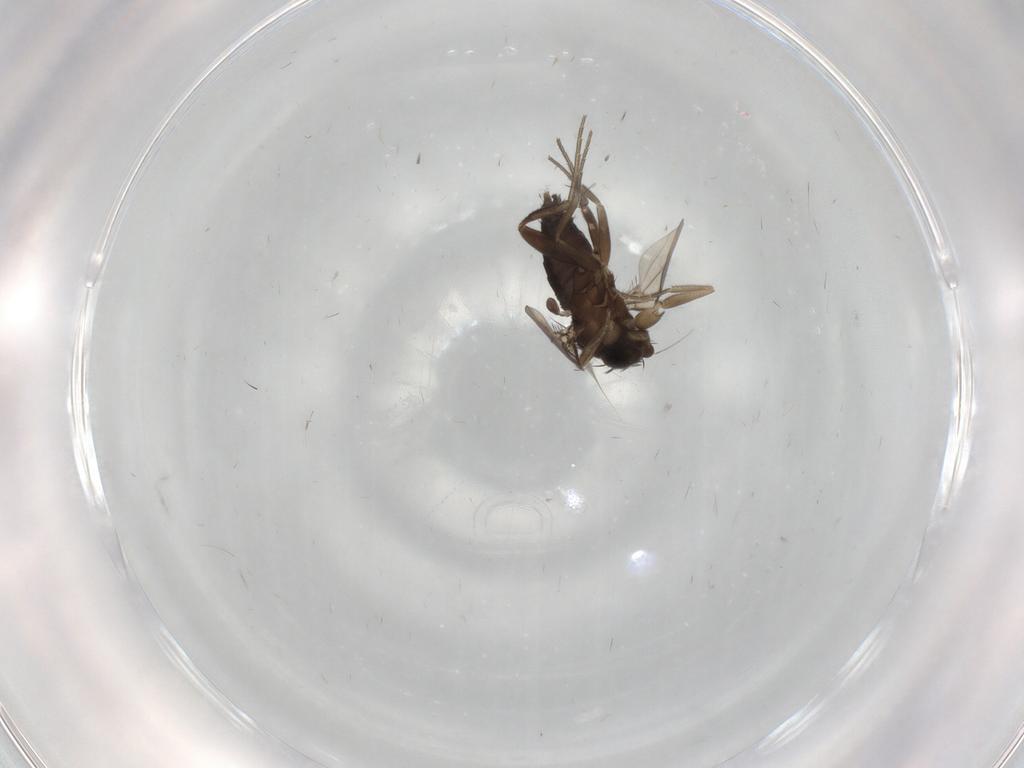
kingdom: Animalia
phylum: Arthropoda
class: Insecta
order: Diptera
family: Phoridae
